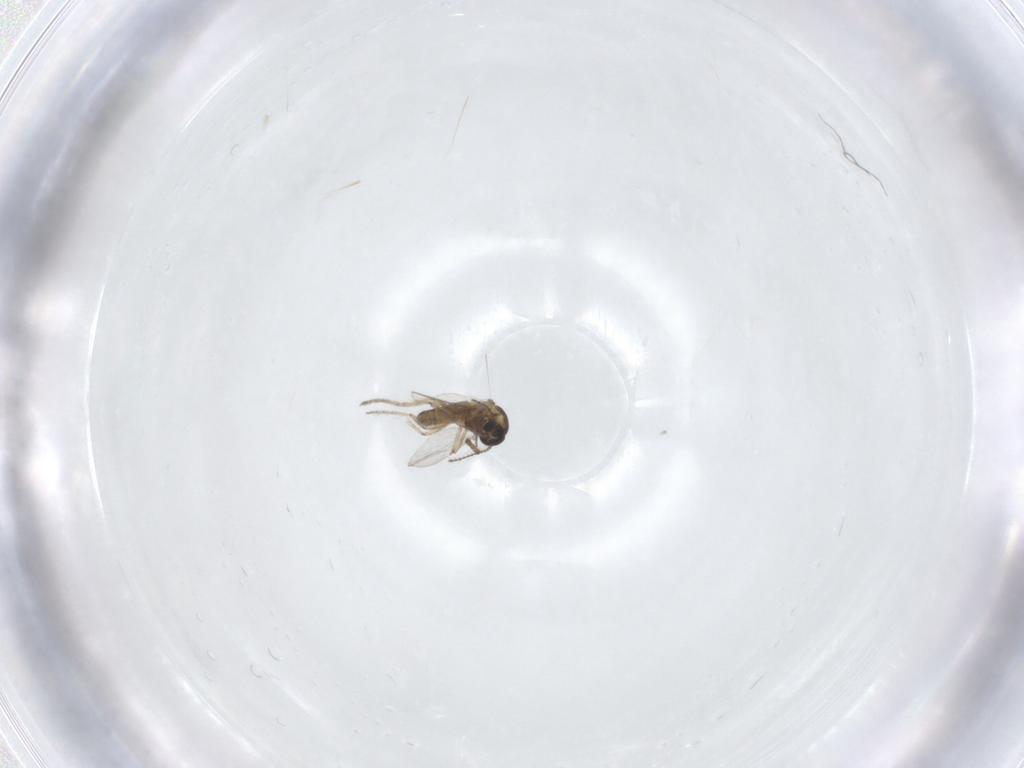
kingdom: Animalia
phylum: Arthropoda
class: Insecta
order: Diptera
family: Ceratopogonidae
